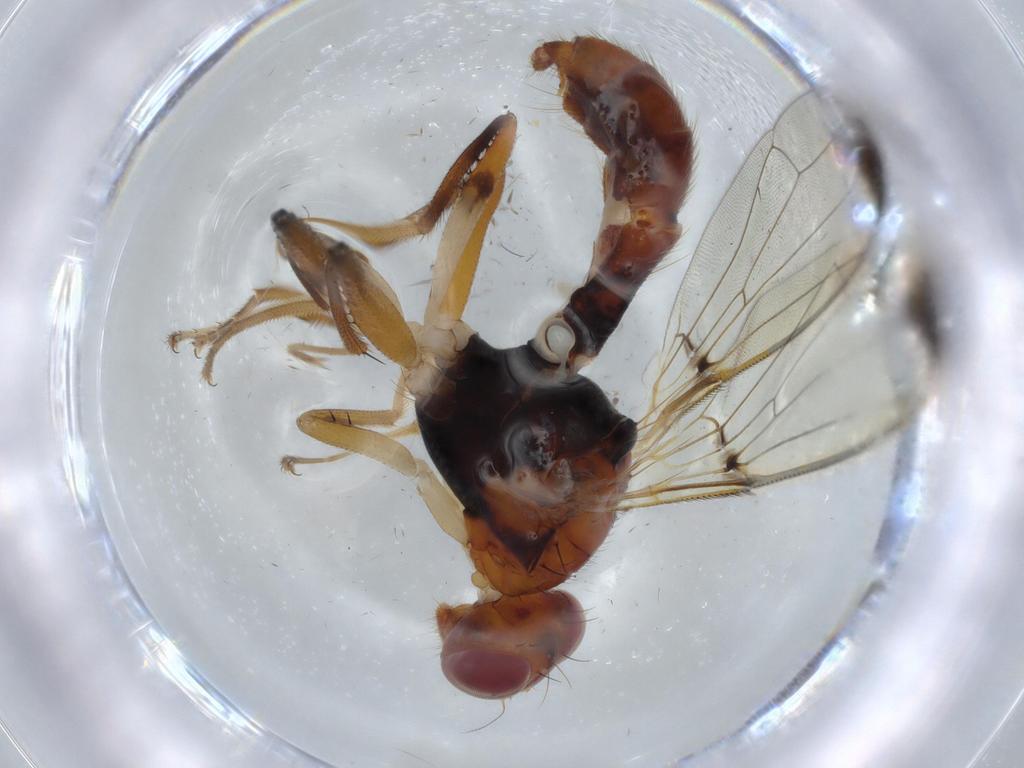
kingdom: Animalia
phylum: Arthropoda
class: Insecta
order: Diptera
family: Richardiidae
